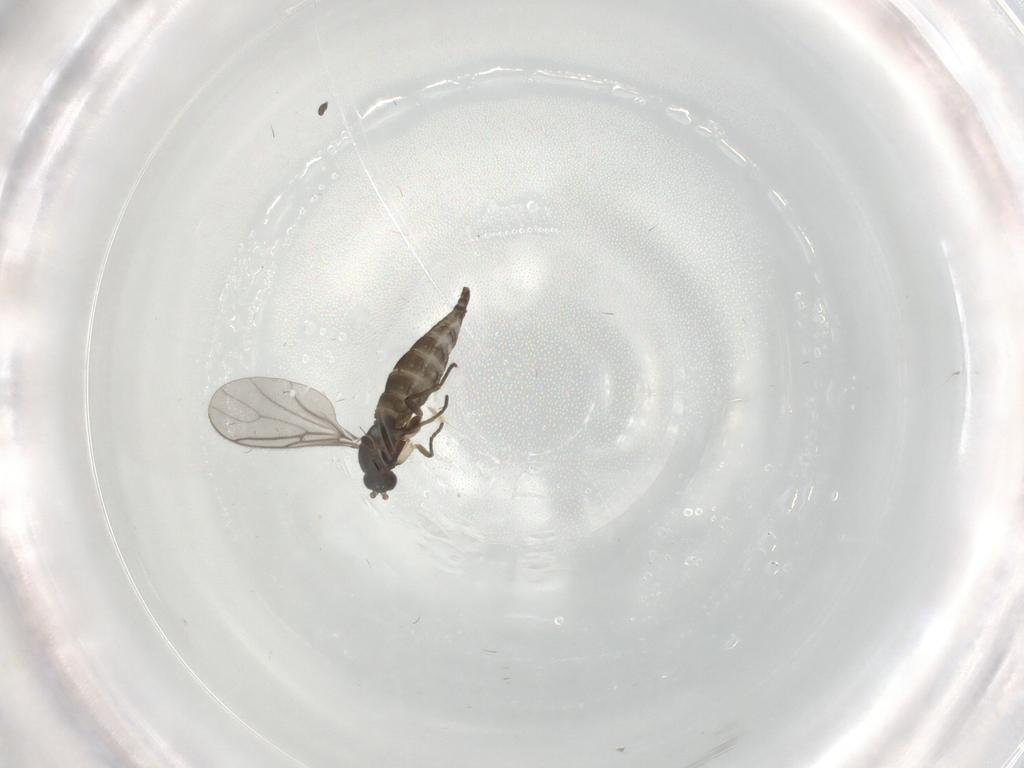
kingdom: Animalia
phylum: Arthropoda
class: Insecta
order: Diptera
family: Sciaridae
